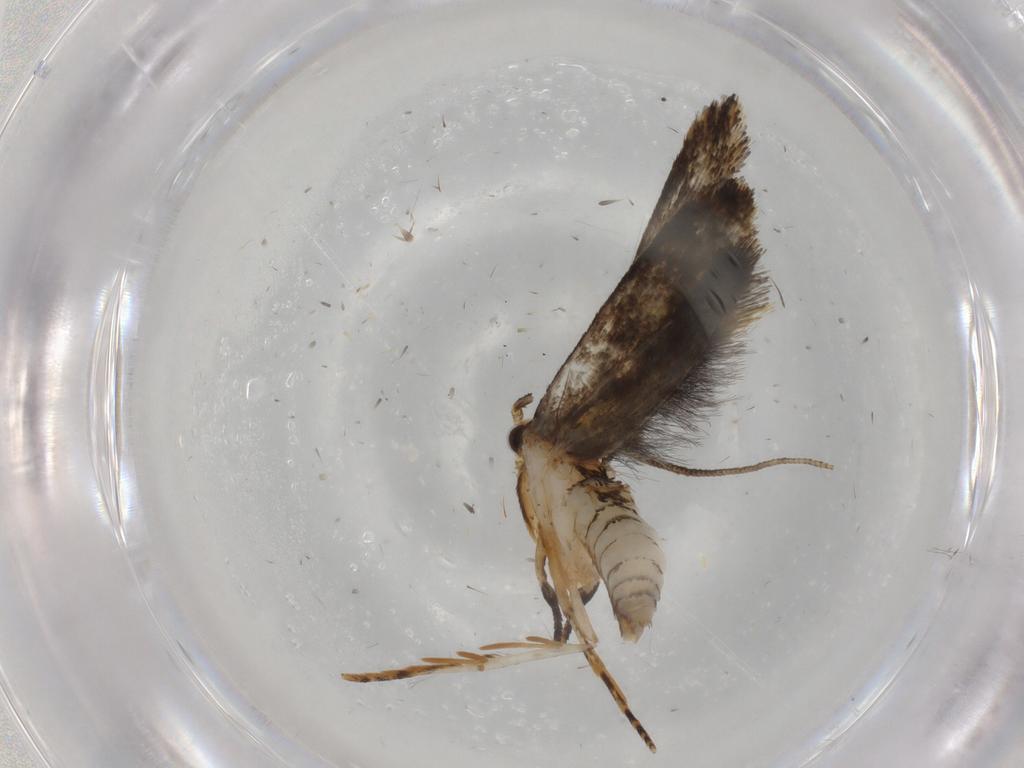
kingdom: Animalia
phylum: Arthropoda
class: Insecta
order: Lepidoptera
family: Tineidae
